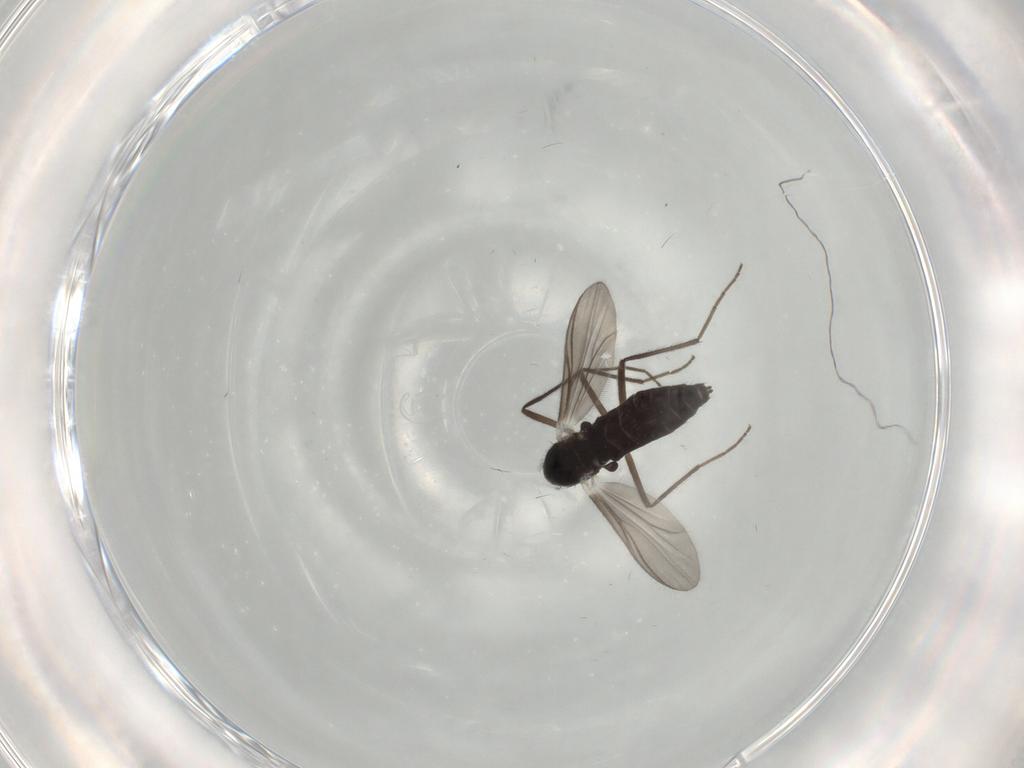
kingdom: Animalia
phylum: Arthropoda
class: Insecta
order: Diptera
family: Chironomidae
